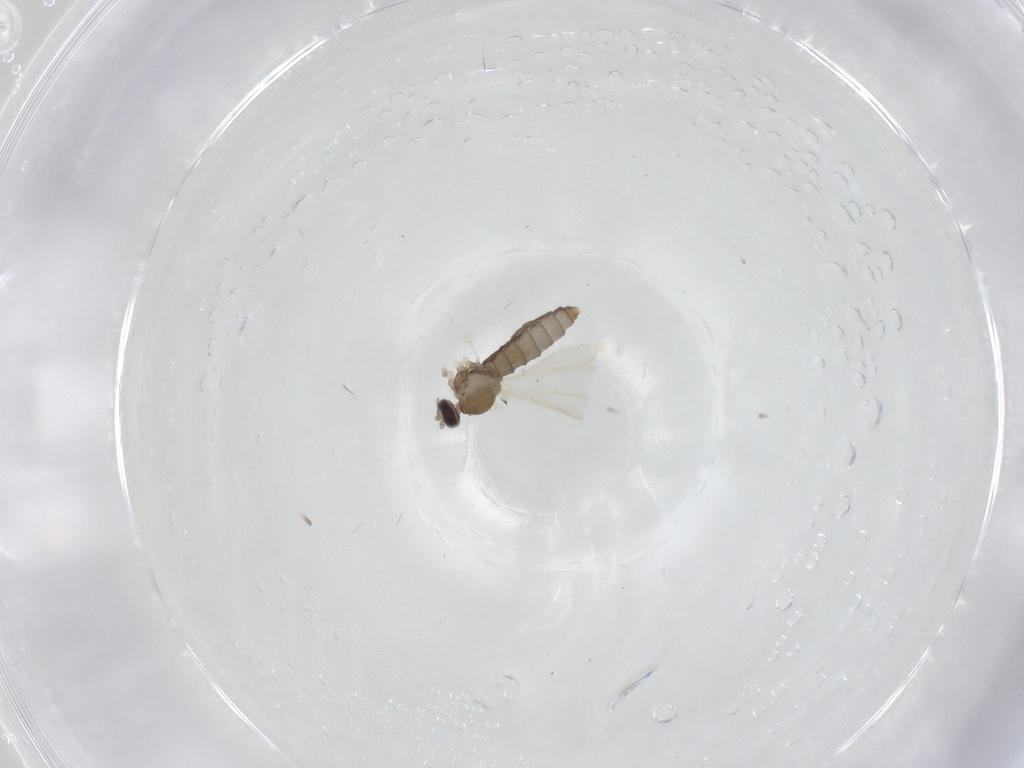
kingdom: Animalia
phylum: Arthropoda
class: Insecta
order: Diptera
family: Cecidomyiidae
